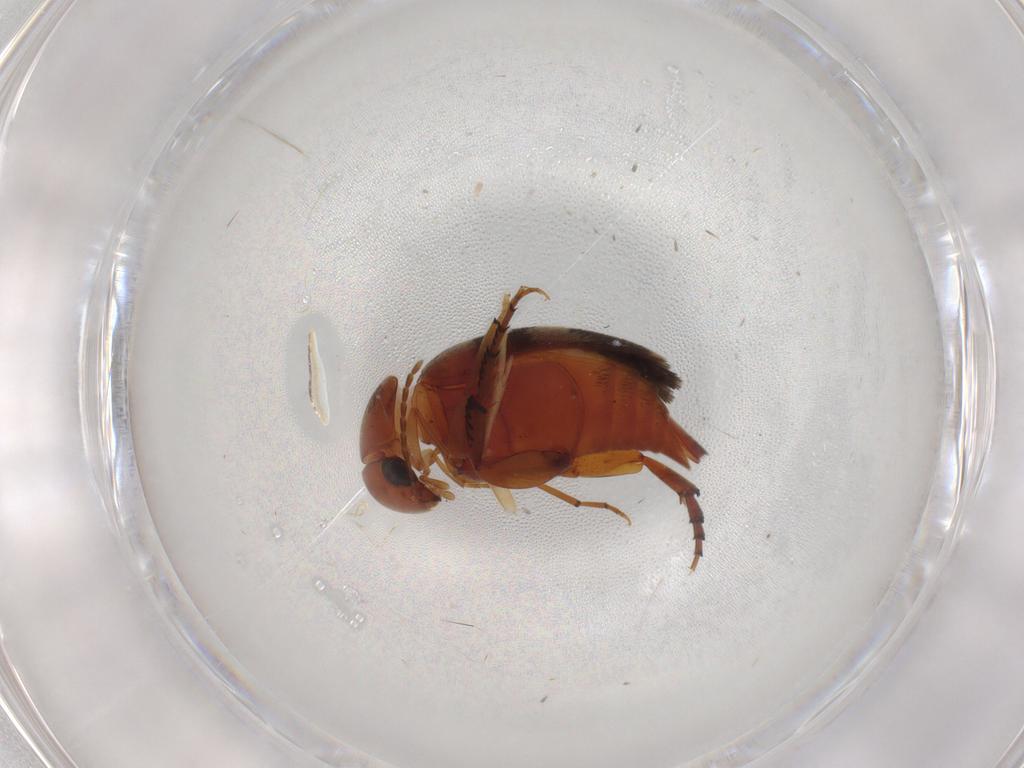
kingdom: Animalia
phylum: Arthropoda
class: Insecta
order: Coleoptera
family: Mordellidae
